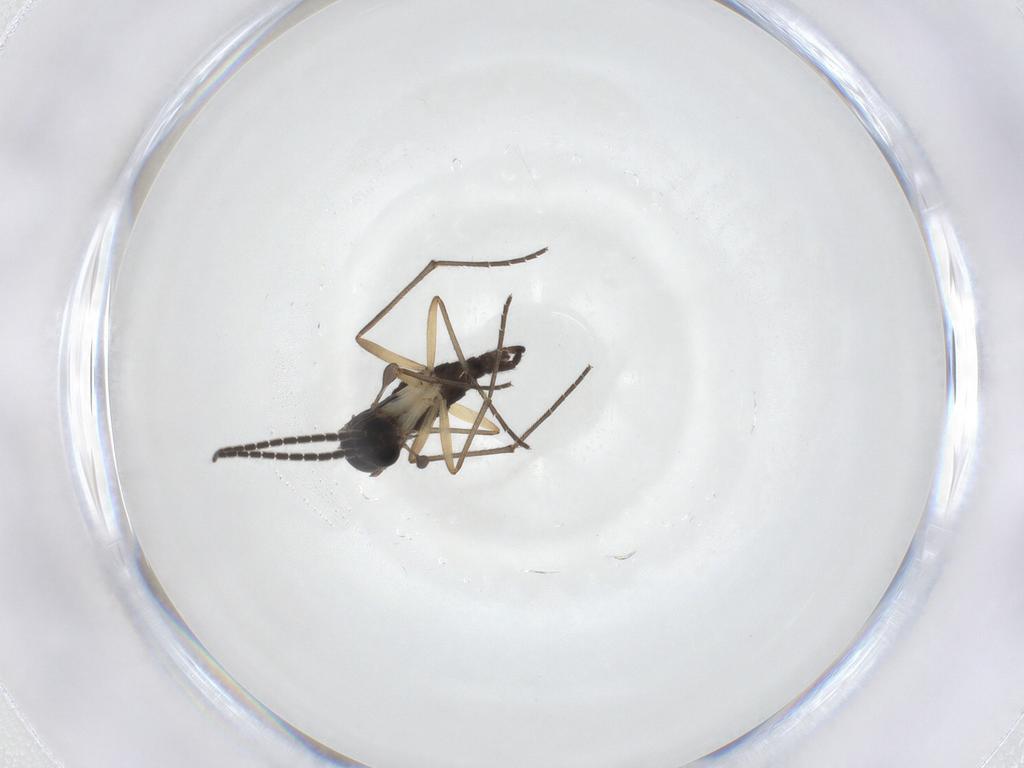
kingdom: Animalia
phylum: Arthropoda
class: Insecta
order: Diptera
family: Sciaridae
